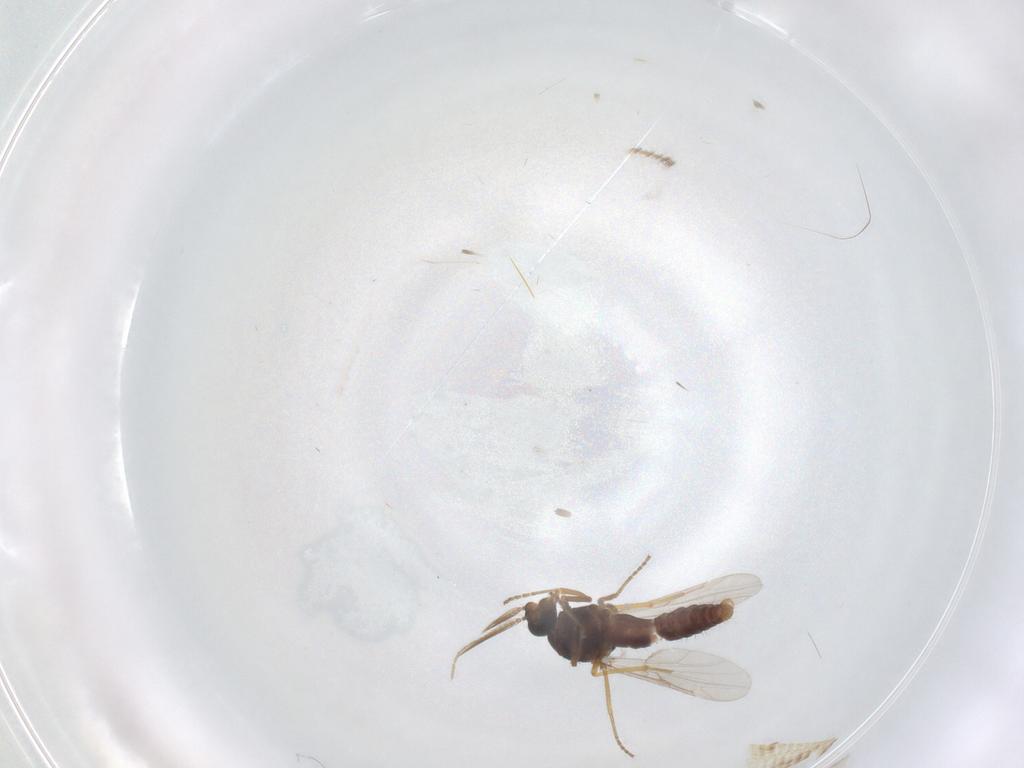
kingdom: Animalia
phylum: Arthropoda
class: Insecta
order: Diptera
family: Ceratopogonidae
